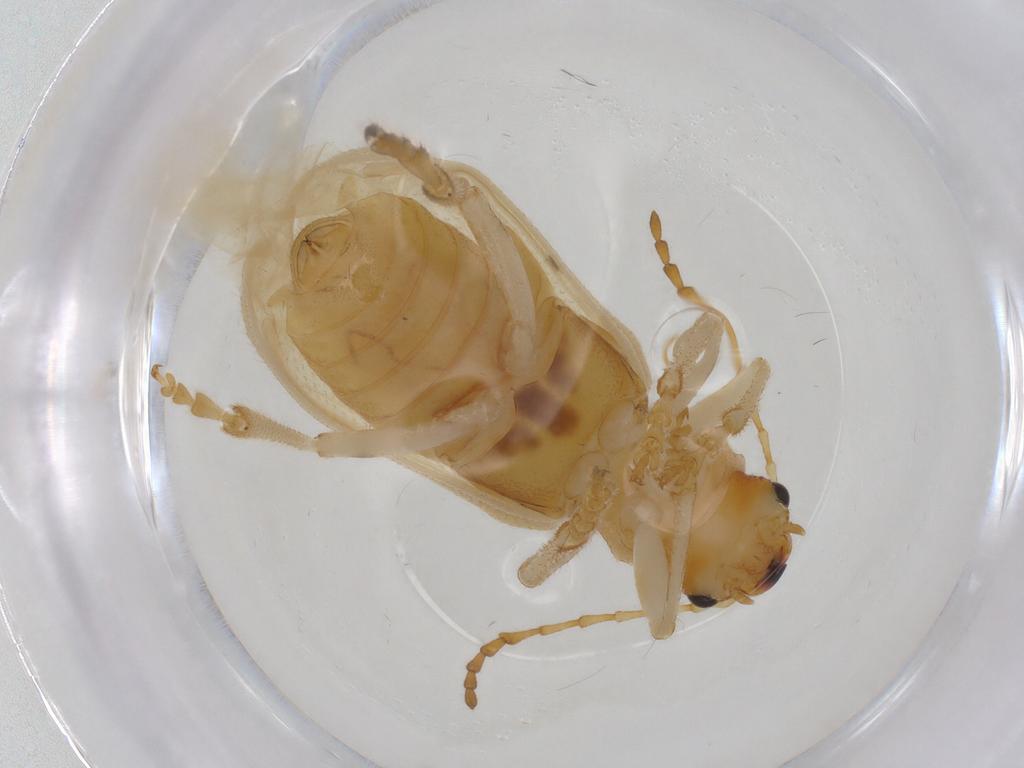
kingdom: Animalia
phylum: Arthropoda
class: Insecta
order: Coleoptera
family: Chrysomelidae
